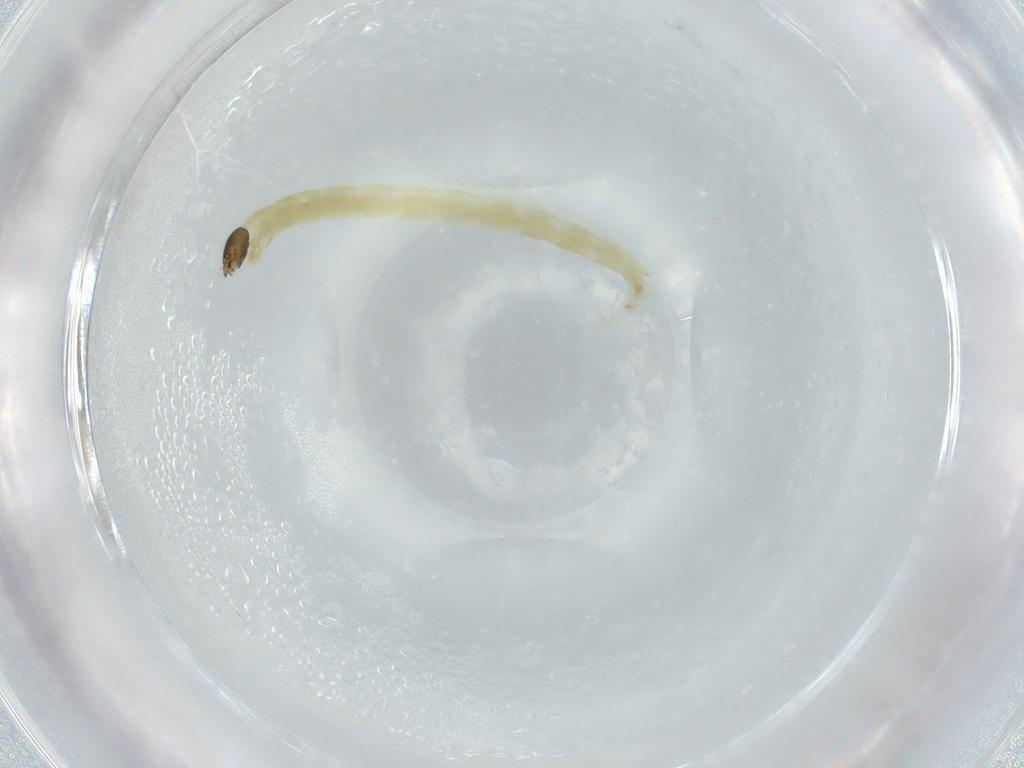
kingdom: Animalia
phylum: Arthropoda
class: Insecta
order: Diptera
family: Chironomidae
